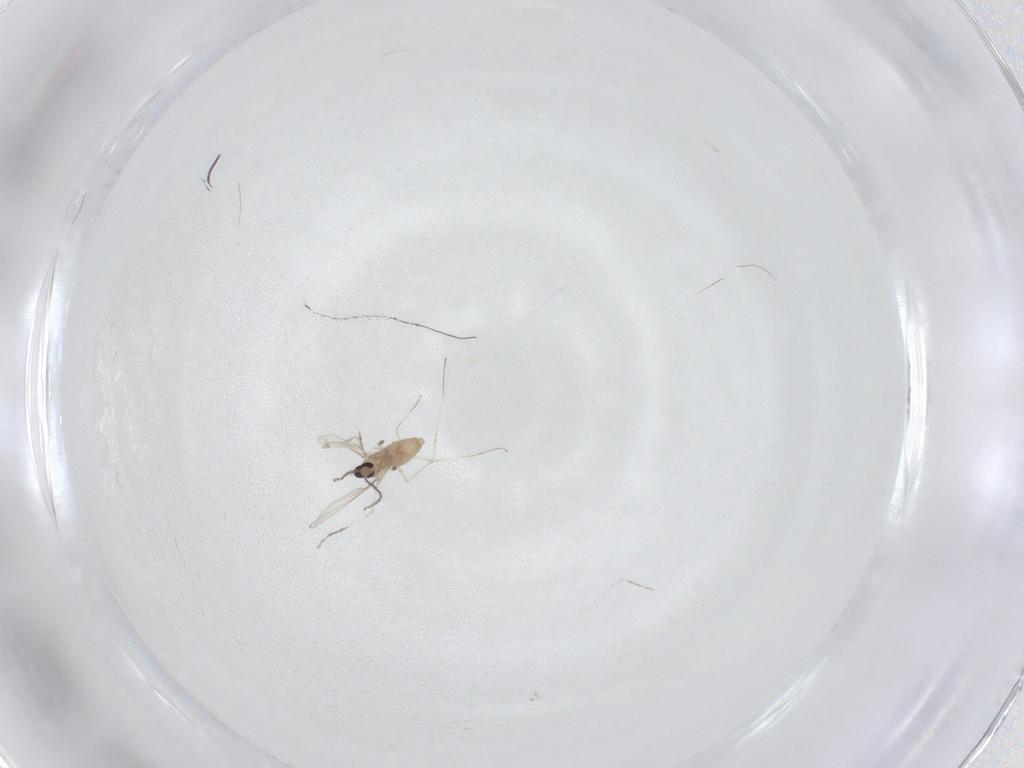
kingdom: Animalia
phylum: Arthropoda
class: Insecta
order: Diptera
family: Cecidomyiidae
